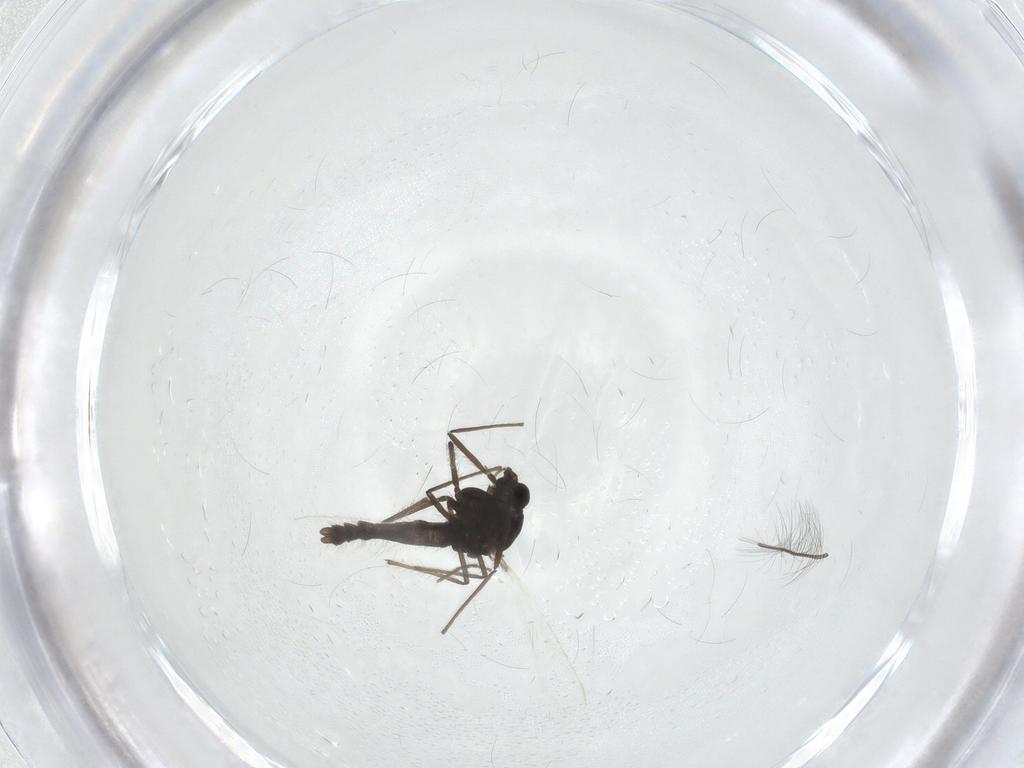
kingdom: Animalia
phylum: Arthropoda
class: Insecta
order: Diptera
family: Chironomidae
